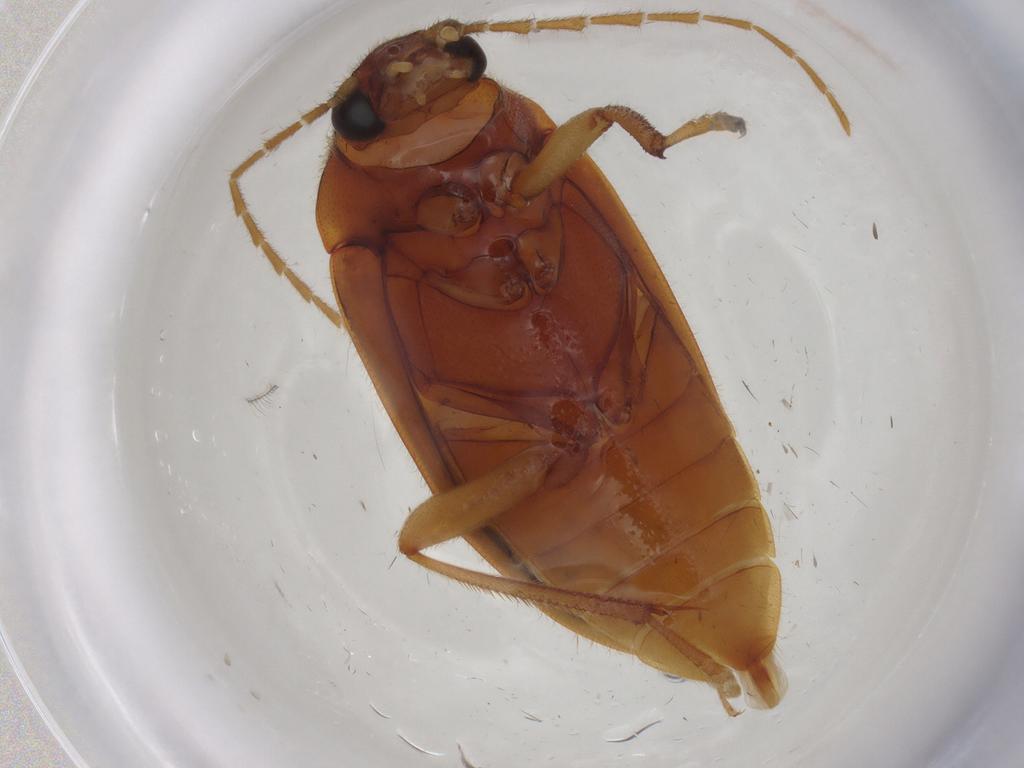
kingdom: Animalia
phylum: Arthropoda
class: Insecta
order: Coleoptera
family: Ptilodactylidae
